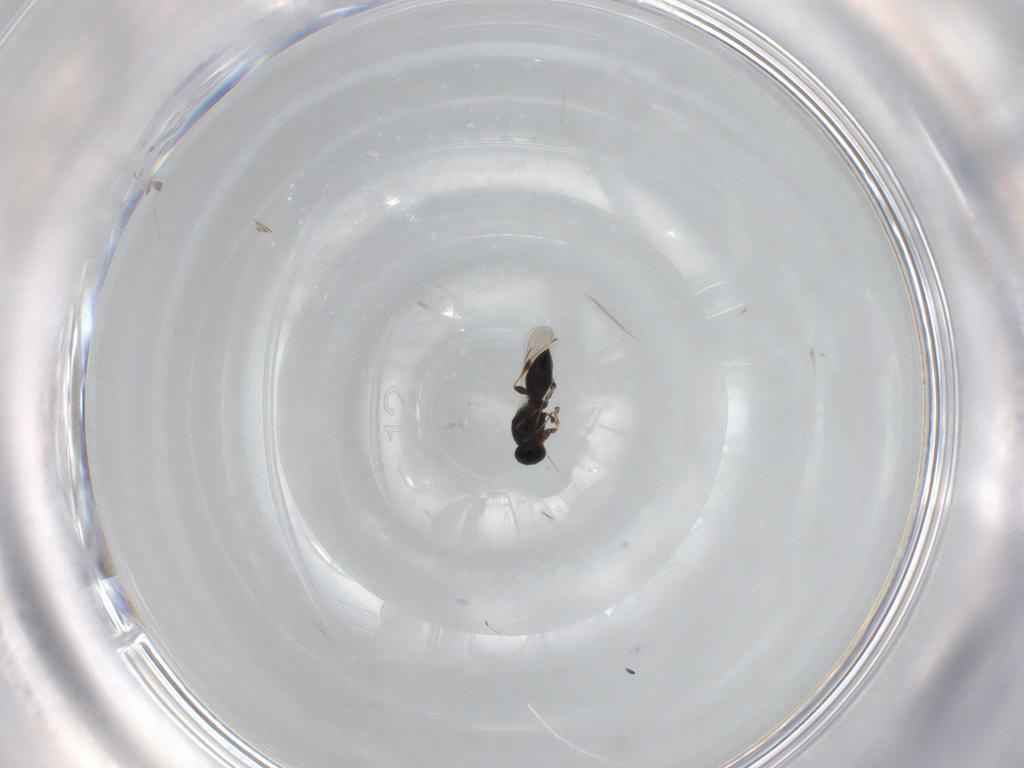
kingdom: Animalia
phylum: Arthropoda
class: Insecta
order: Hymenoptera
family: Platygastridae
